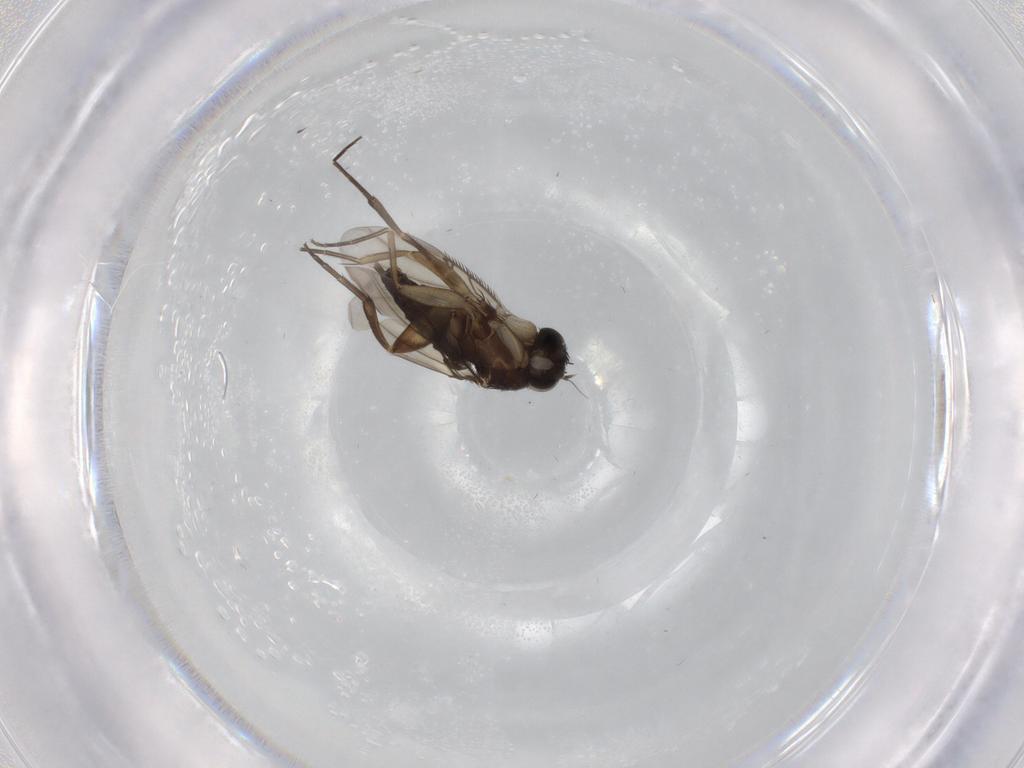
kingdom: Animalia
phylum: Arthropoda
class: Insecta
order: Diptera
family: Phoridae
